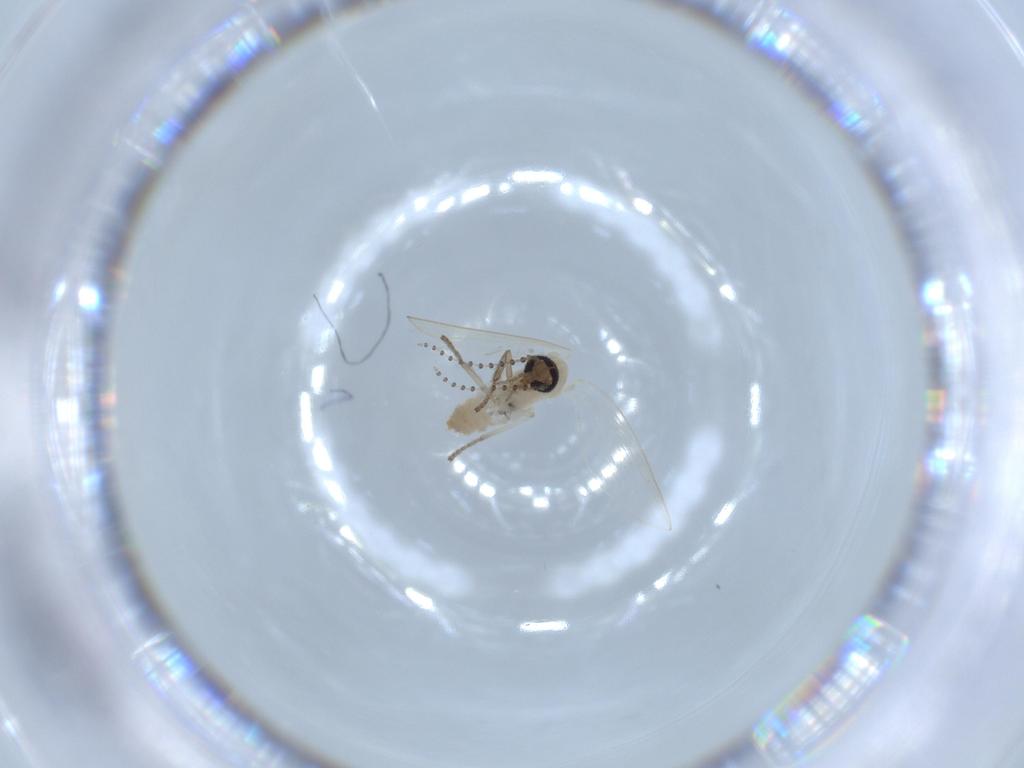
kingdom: Animalia
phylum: Arthropoda
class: Insecta
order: Diptera
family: Psychodidae
